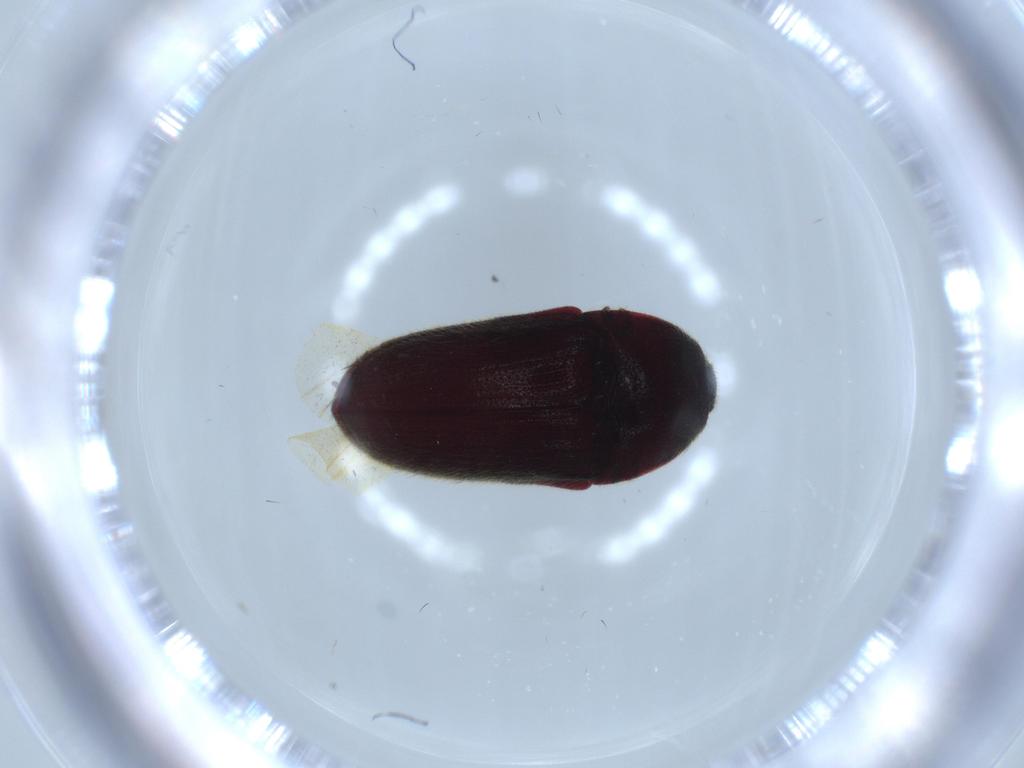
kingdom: Animalia
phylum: Arthropoda
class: Insecta
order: Coleoptera
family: Throscidae
